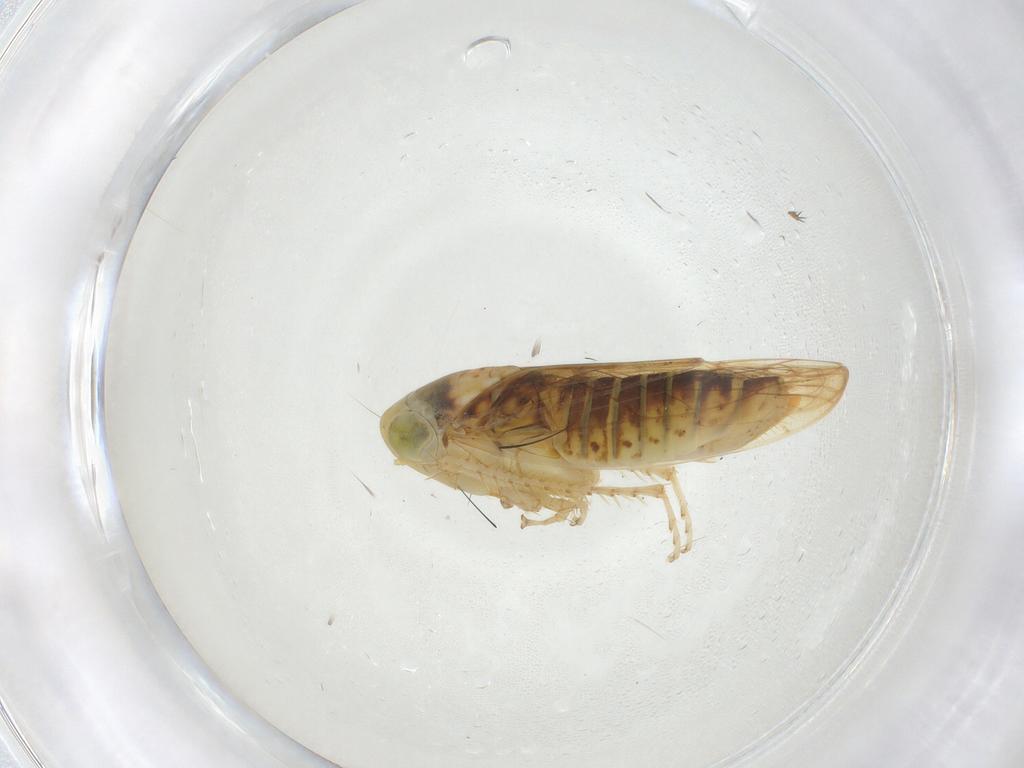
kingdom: Animalia
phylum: Arthropoda
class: Insecta
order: Hemiptera
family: Cicadellidae
